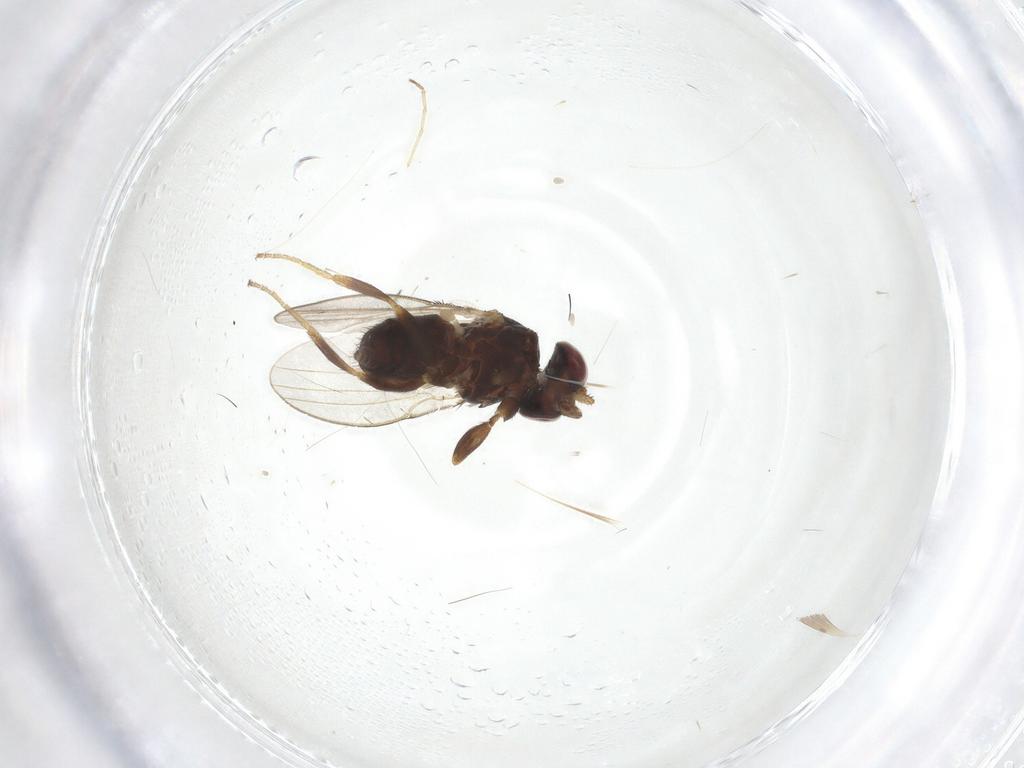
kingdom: Animalia
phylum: Arthropoda
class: Insecta
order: Diptera
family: Milichiidae
